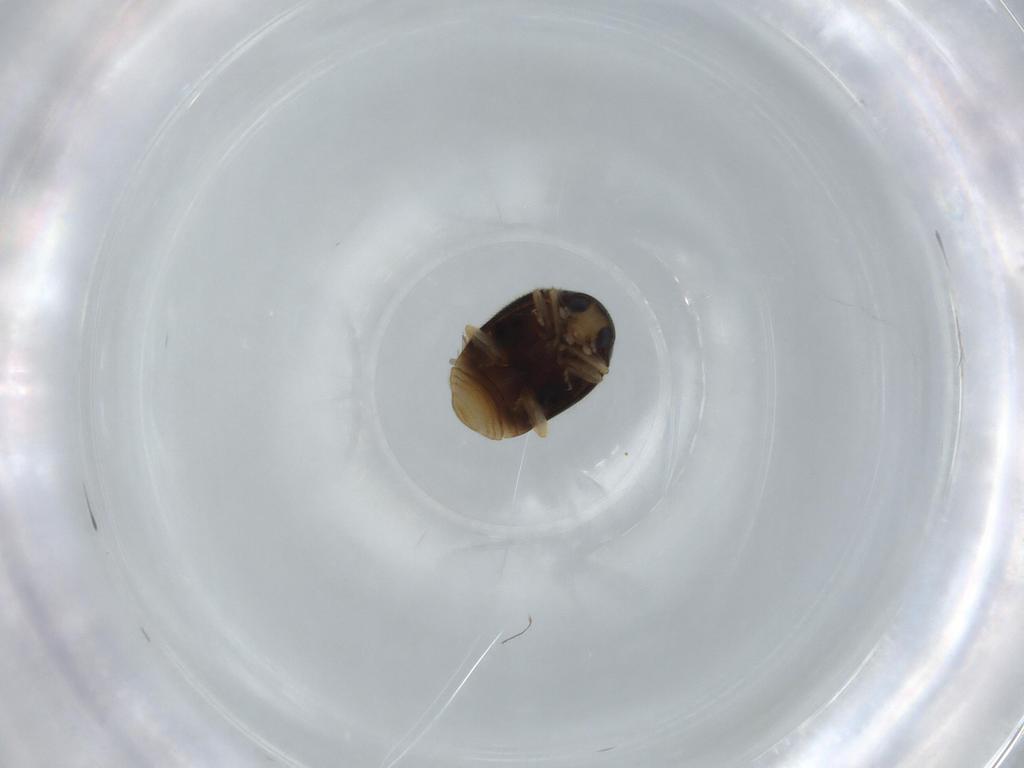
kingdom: Animalia
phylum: Arthropoda
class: Insecta
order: Coleoptera
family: Coccinellidae
